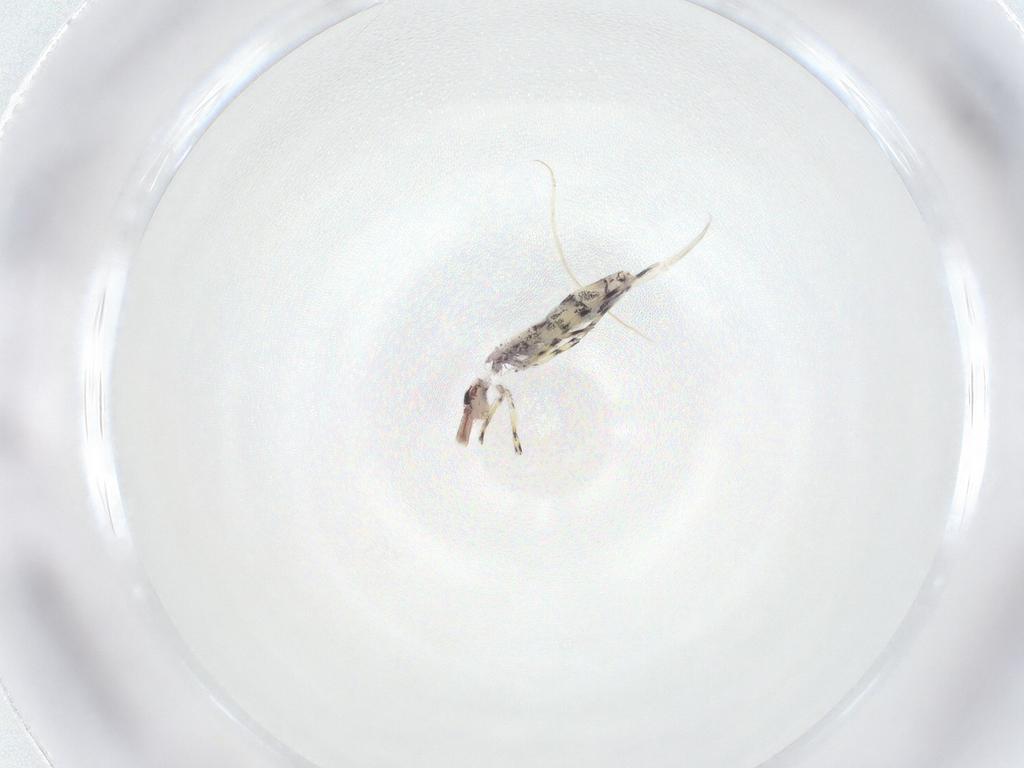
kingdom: Animalia
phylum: Arthropoda
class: Collembola
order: Entomobryomorpha
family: Entomobryidae
